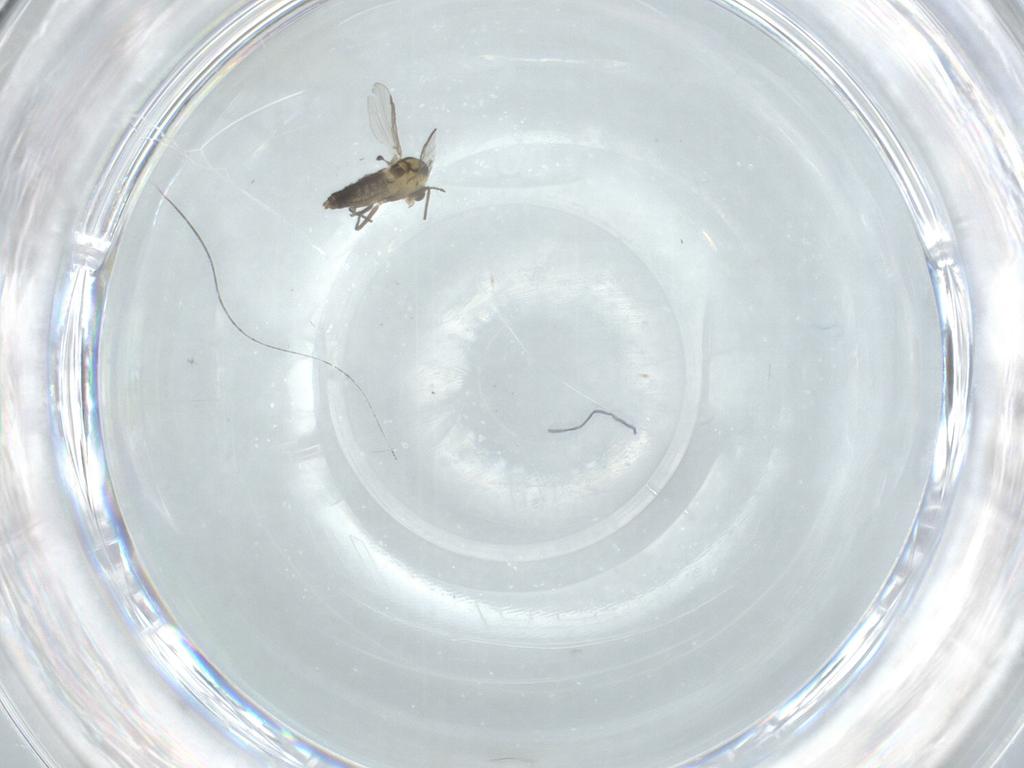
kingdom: Animalia
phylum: Arthropoda
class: Insecta
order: Diptera
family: Chironomidae
